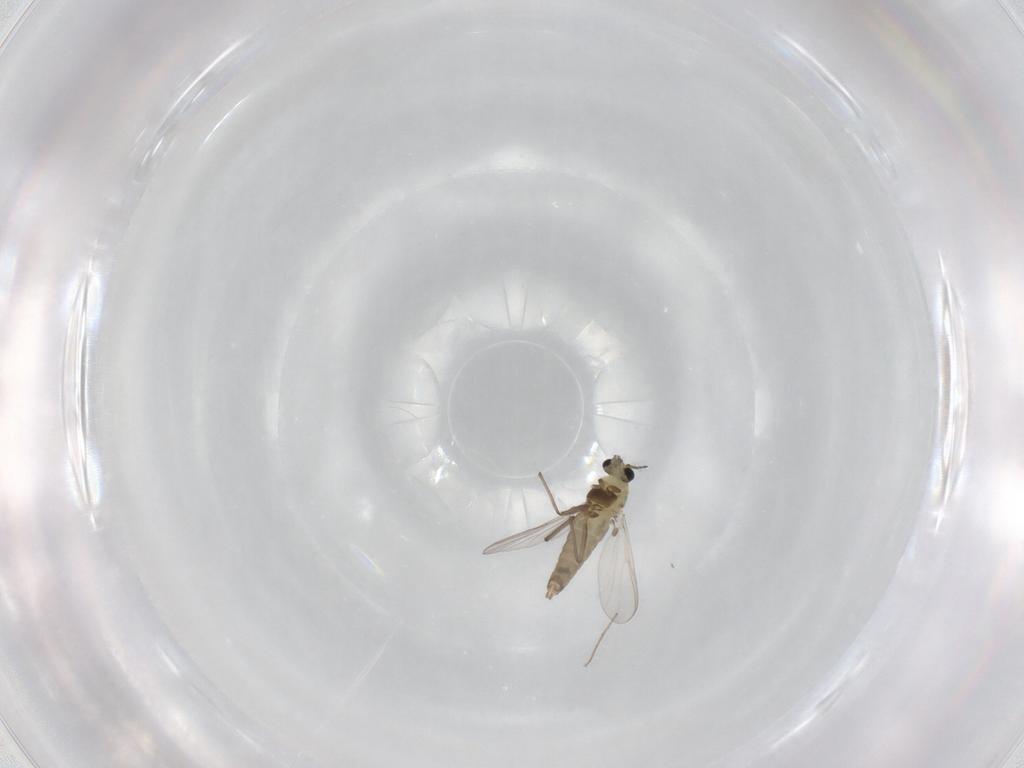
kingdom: Animalia
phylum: Arthropoda
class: Insecta
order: Diptera
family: Chironomidae
